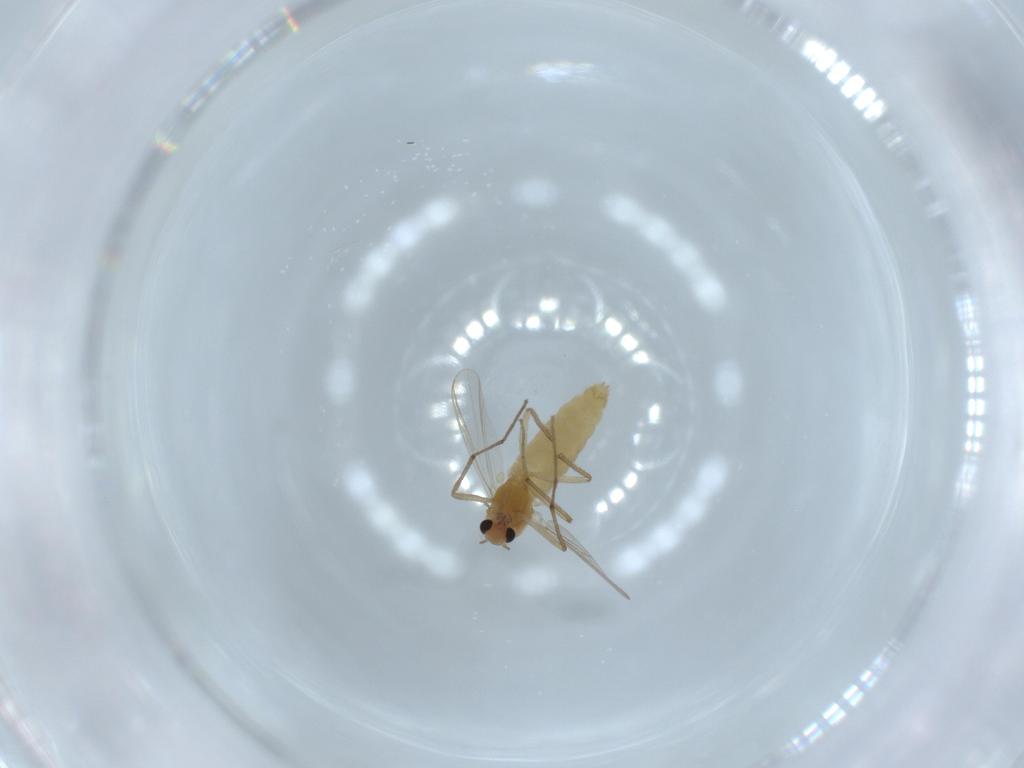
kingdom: Animalia
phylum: Arthropoda
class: Insecta
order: Diptera
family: Chironomidae
